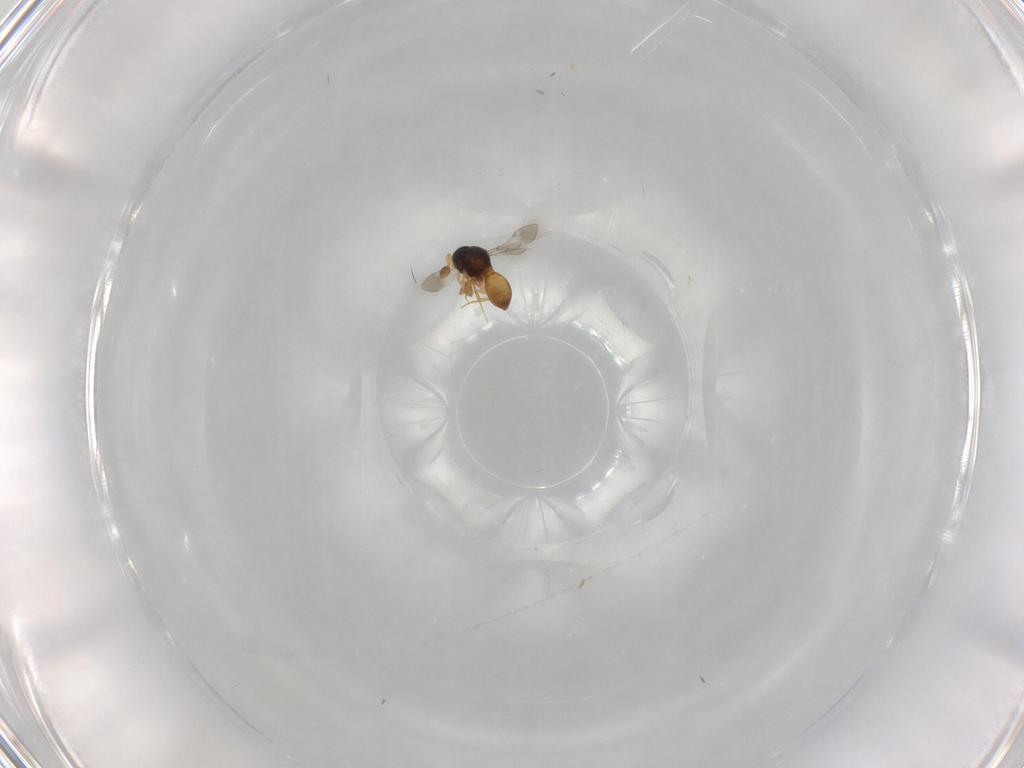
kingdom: Animalia
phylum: Arthropoda
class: Insecta
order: Hymenoptera
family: Scelionidae
